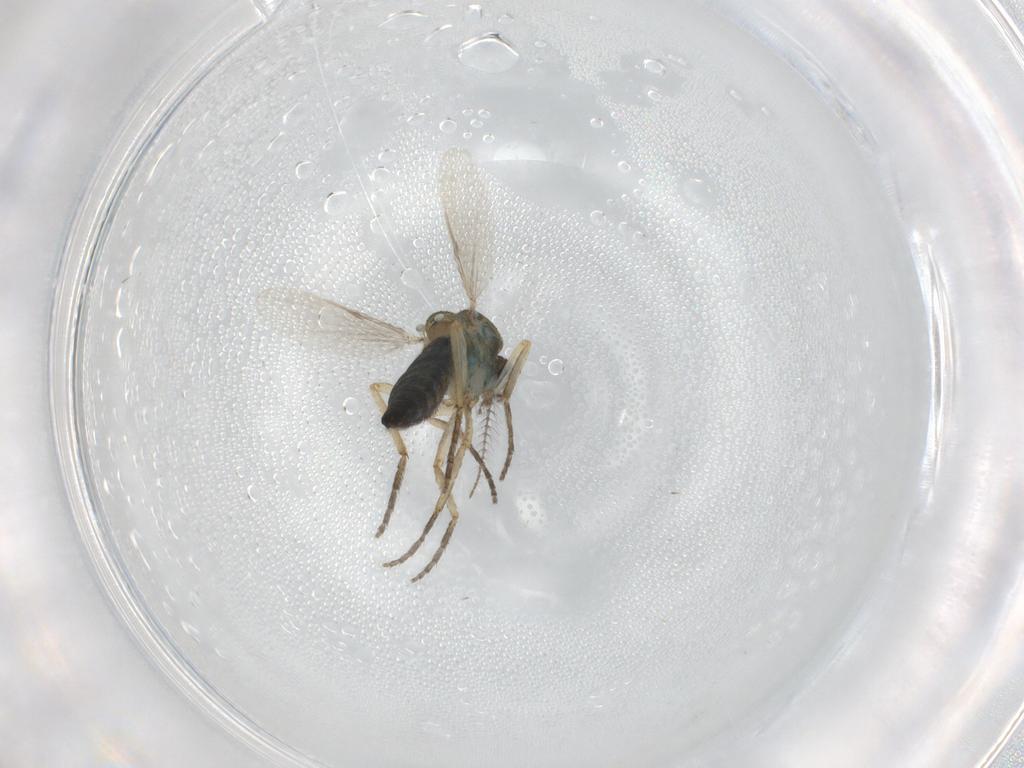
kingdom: Animalia
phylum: Arthropoda
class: Insecta
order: Diptera
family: Ceratopogonidae
